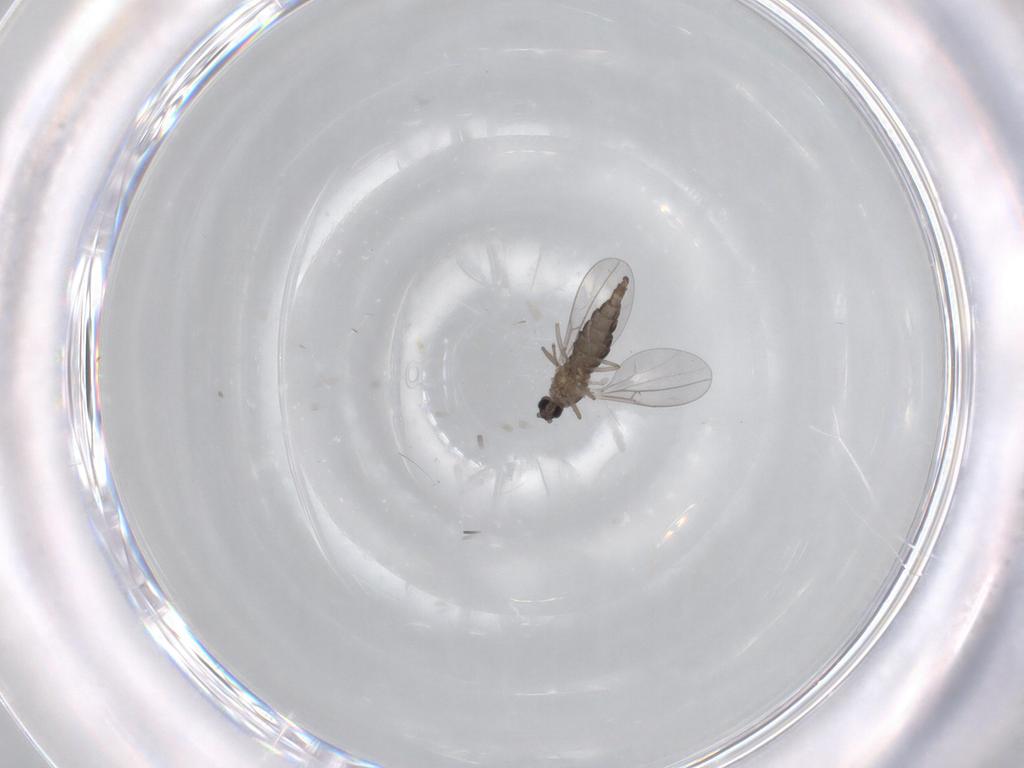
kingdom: Animalia
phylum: Arthropoda
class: Insecta
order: Diptera
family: Cecidomyiidae
